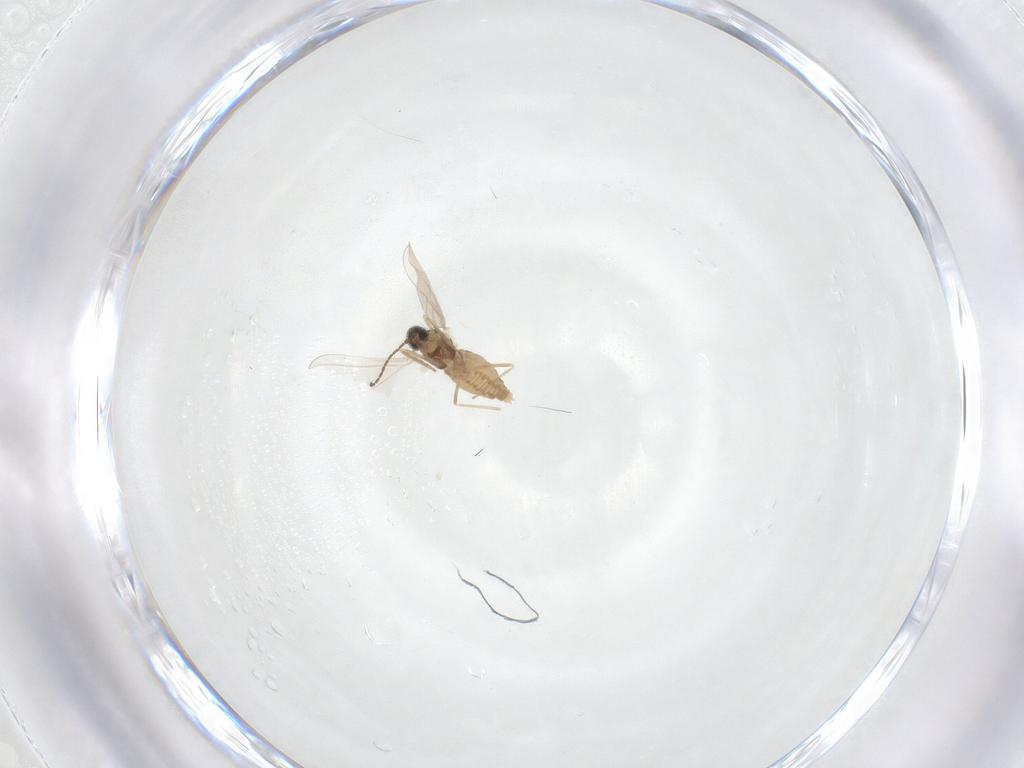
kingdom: Animalia
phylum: Arthropoda
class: Insecta
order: Diptera
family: Cecidomyiidae
